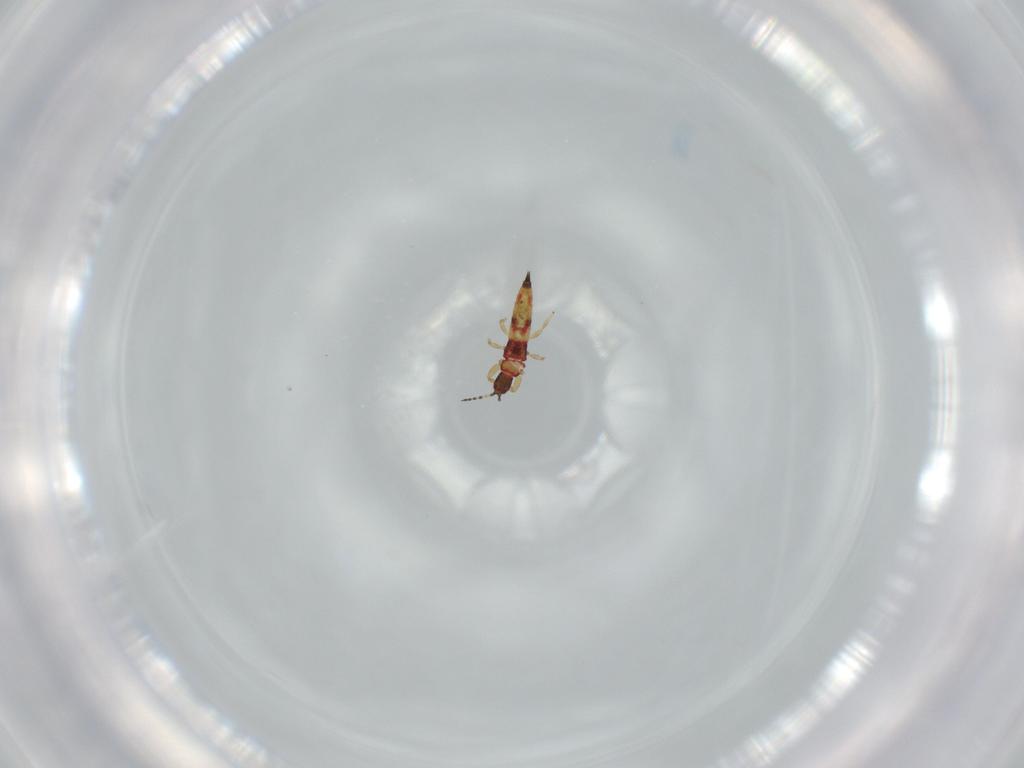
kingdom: Animalia
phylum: Arthropoda
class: Insecta
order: Thysanoptera
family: Phlaeothripidae
